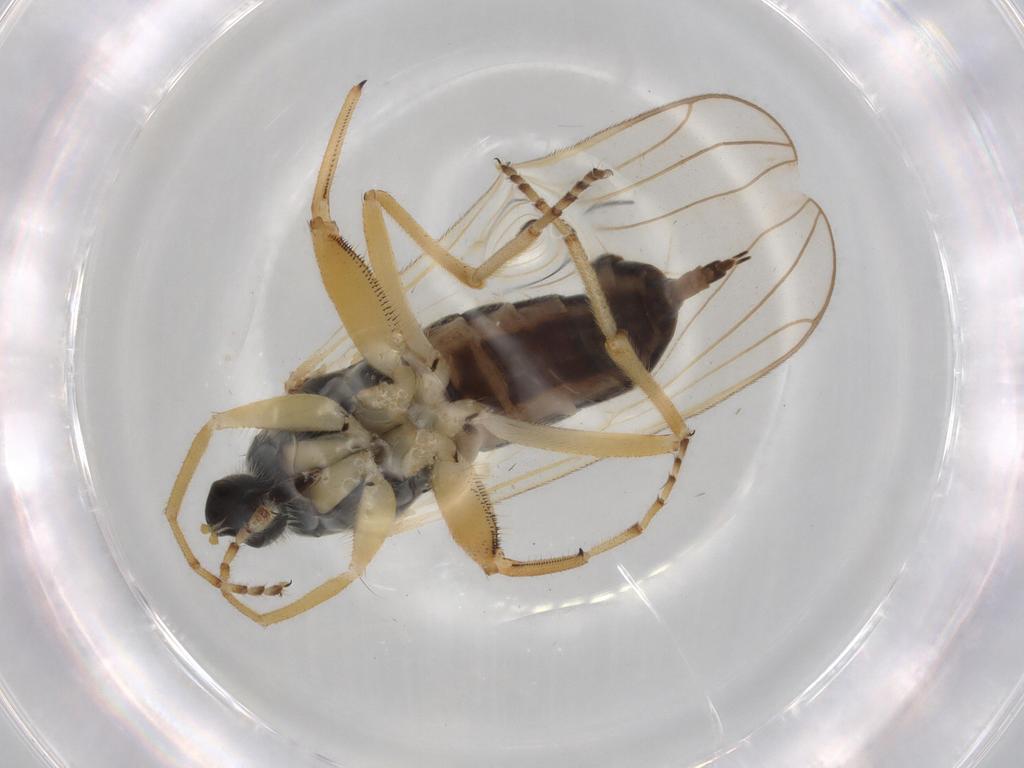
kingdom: Animalia
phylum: Arthropoda
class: Insecta
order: Diptera
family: Hybotidae
